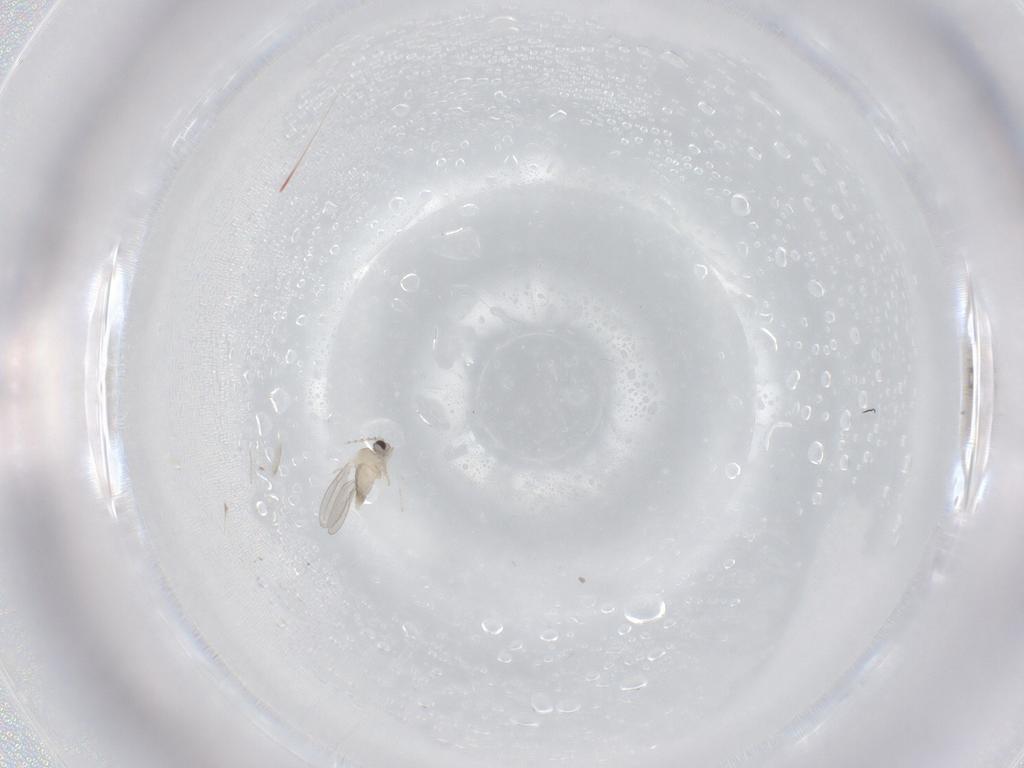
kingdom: Animalia
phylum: Arthropoda
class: Insecta
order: Diptera
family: Cecidomyiidae
